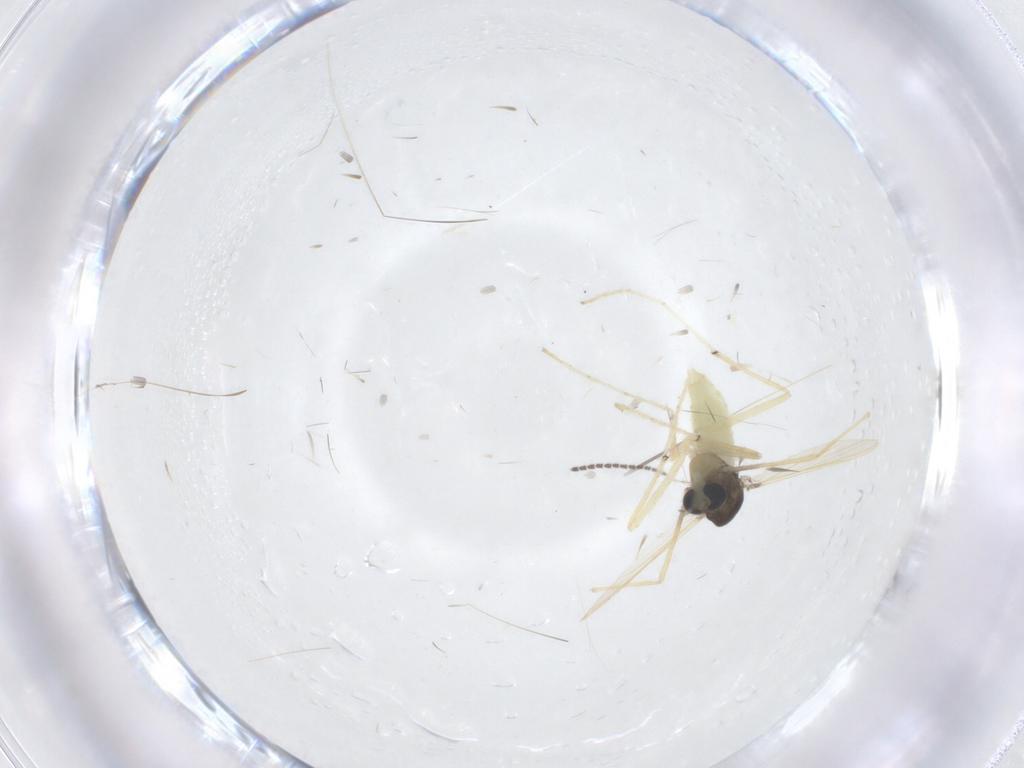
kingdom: Animalia
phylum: Arthropoda
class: Insecta
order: Diptera
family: Chironomidae
